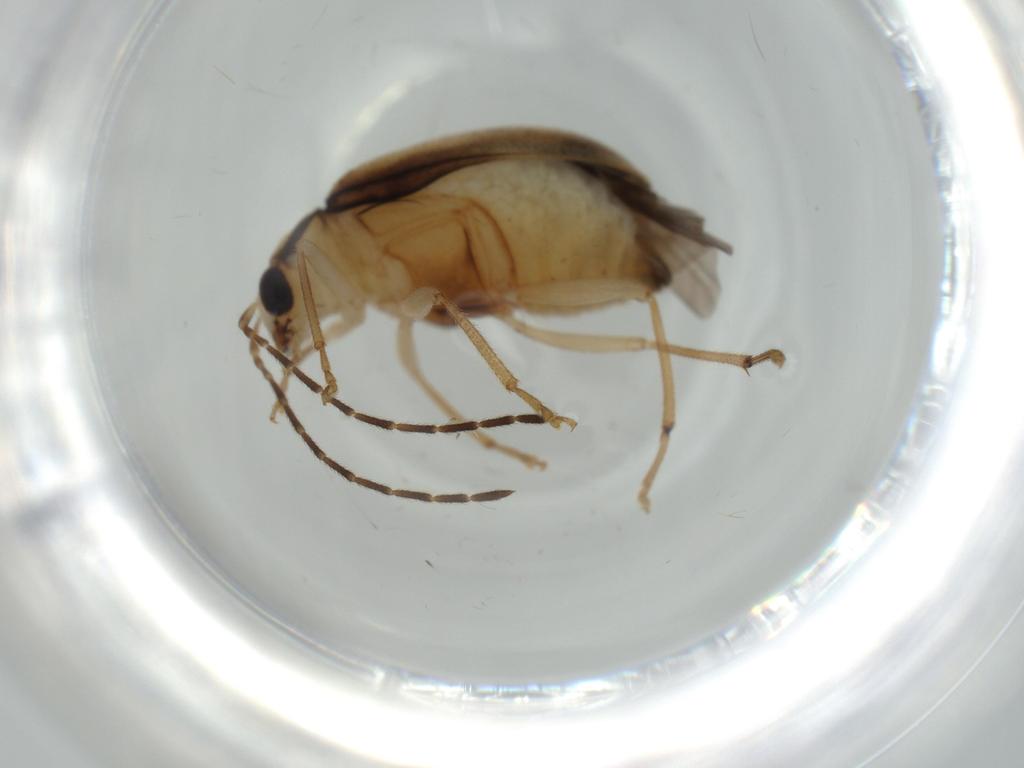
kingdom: Animalia
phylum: Arthropoda
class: Insecta
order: Coleoptera
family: Chrysomelidae
